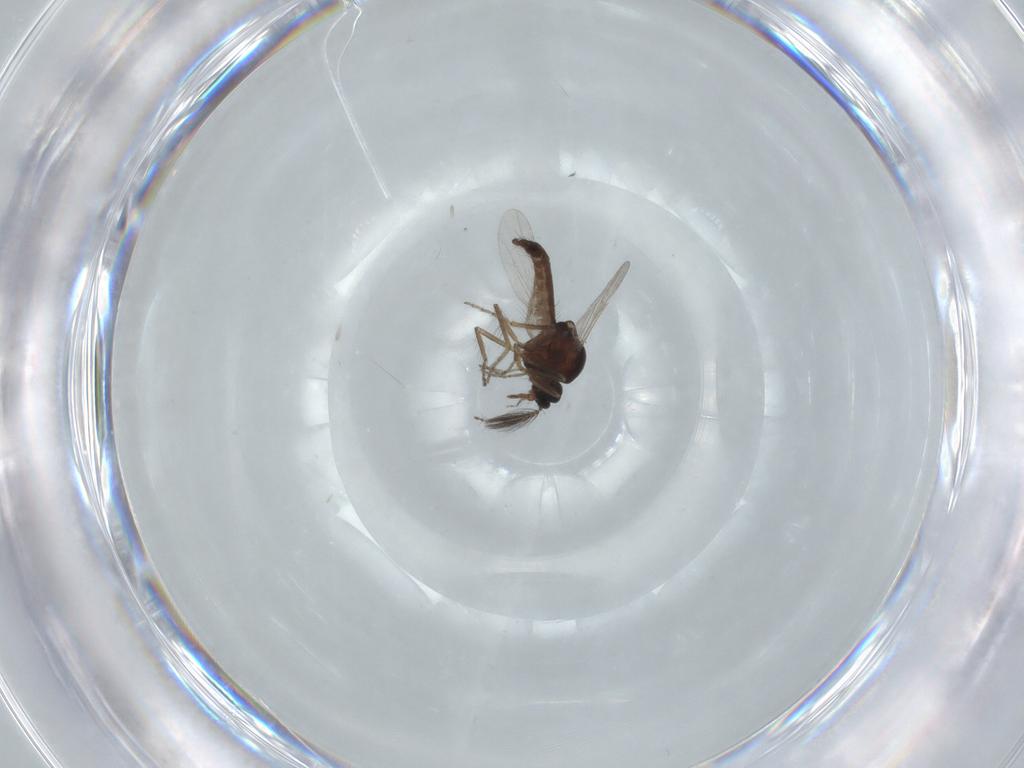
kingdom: Animalia
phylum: Arthropoda
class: Insecta
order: Diptera
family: Ceratopogonidae
